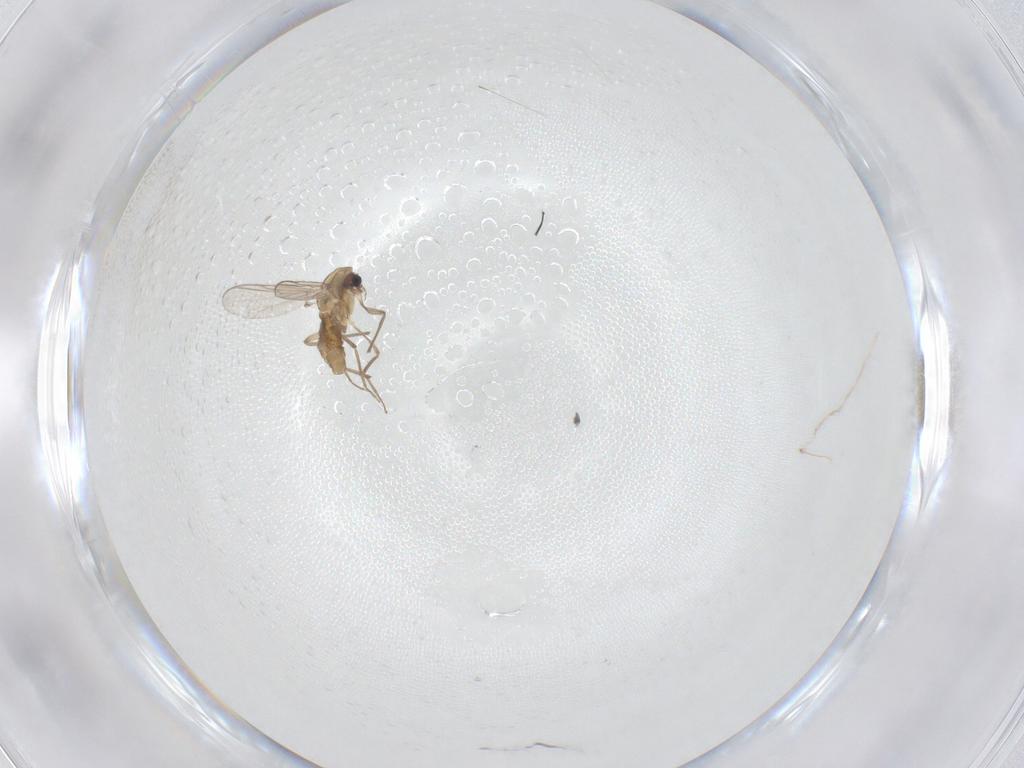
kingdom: Animalia
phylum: Arthropoda
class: Insecta
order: Diptera
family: Chironomidae
